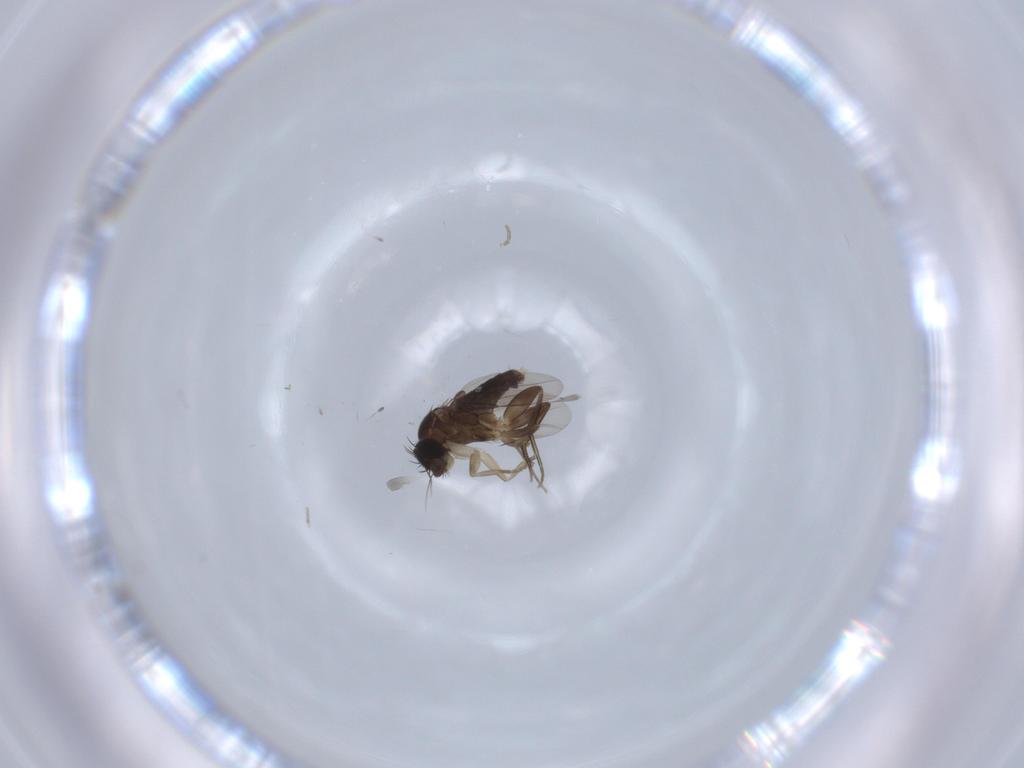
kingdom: Animalia
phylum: Arthropoda
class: Insecta
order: Diptera
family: Phoridae
